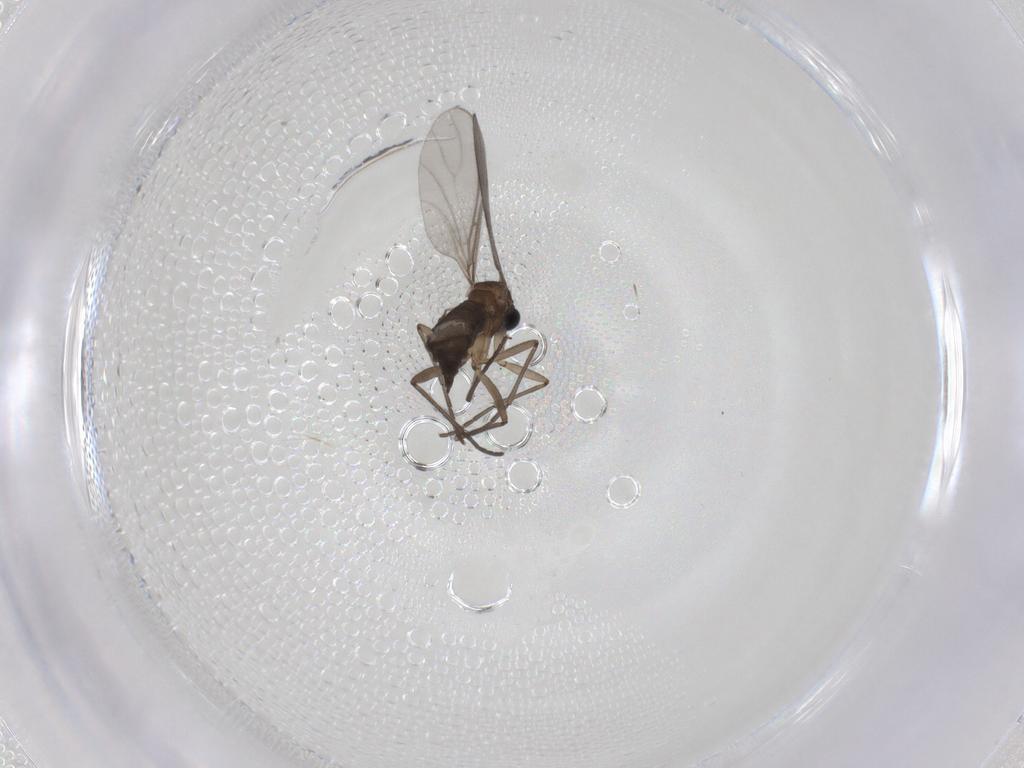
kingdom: Animalia
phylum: Arthropoda
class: Insecta
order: Diptera
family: Sciaridae
